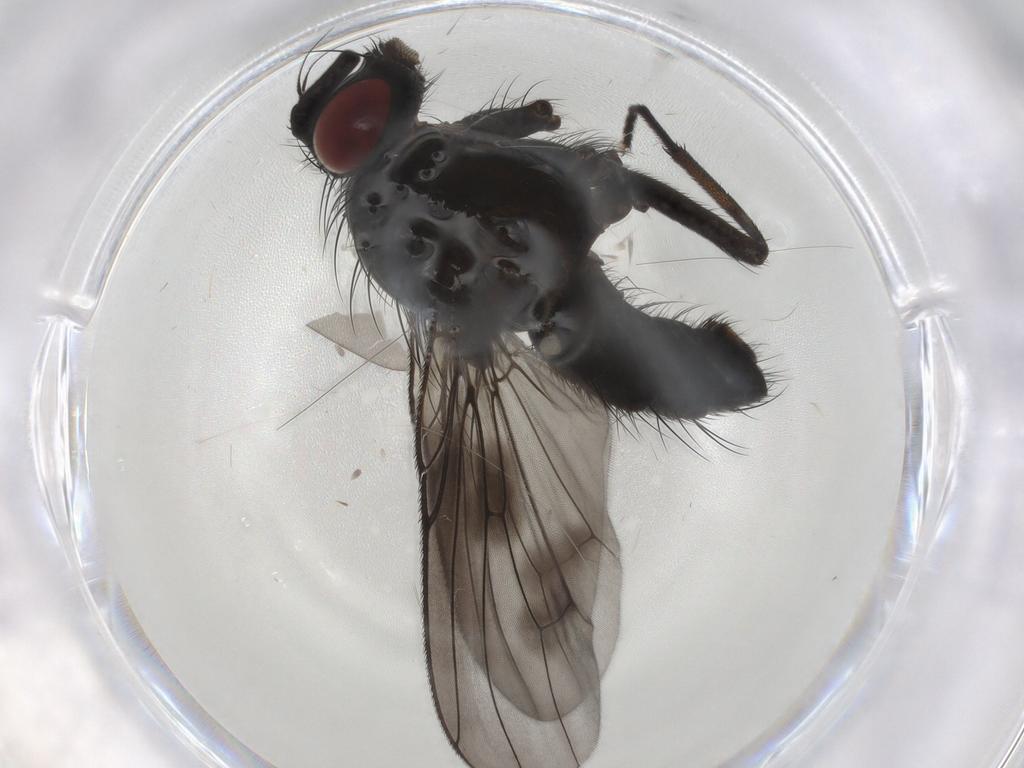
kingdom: Animalia
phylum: Arthropoda
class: Insecta
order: Diptera
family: Muscidae
